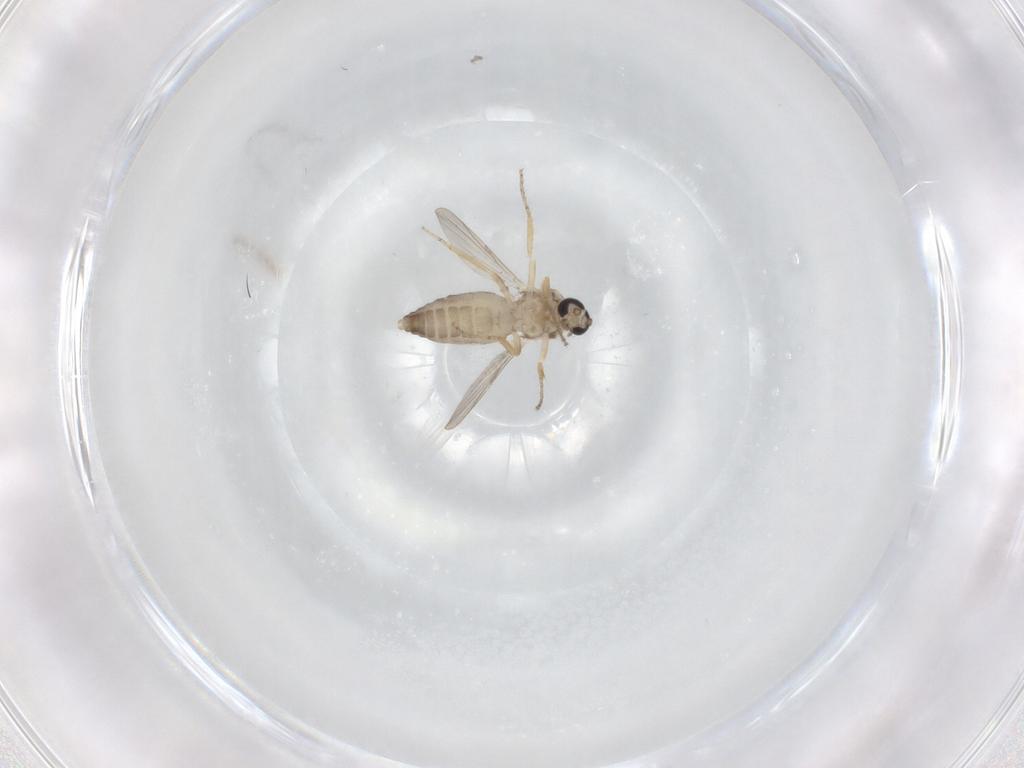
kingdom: Animalia
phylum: Arthropoda
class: Insecta
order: Diptera
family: Ceratopogonidae
